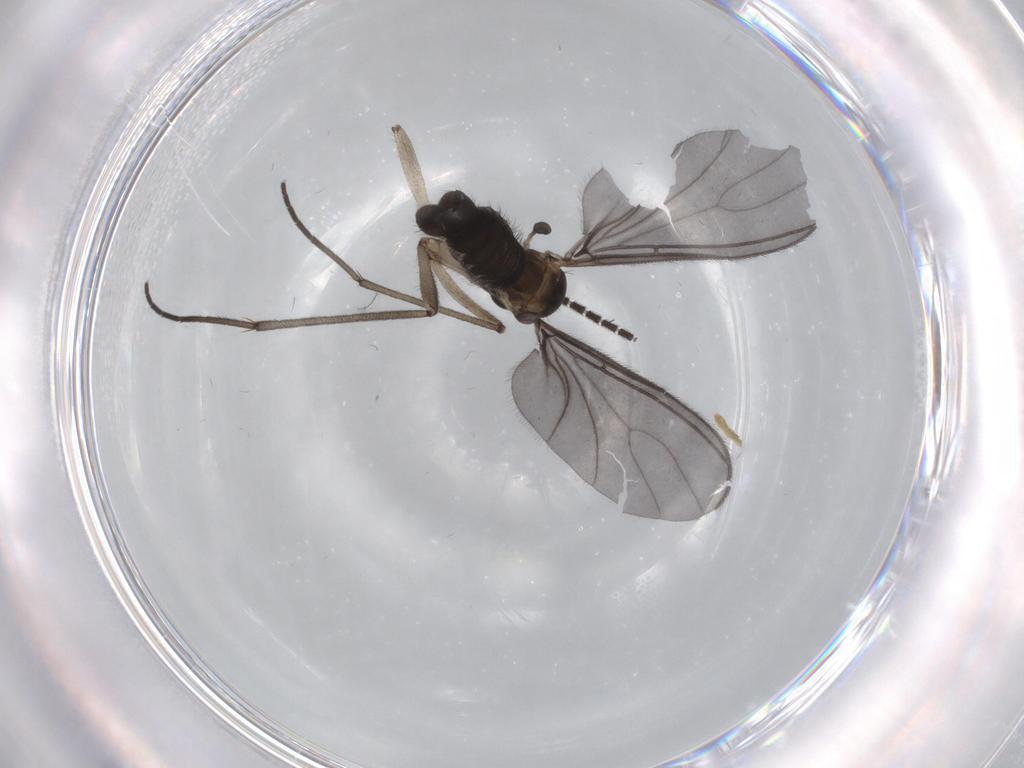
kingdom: Animalia
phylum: Arthropoda
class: Insecta
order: Diptera
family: Sciaridae
